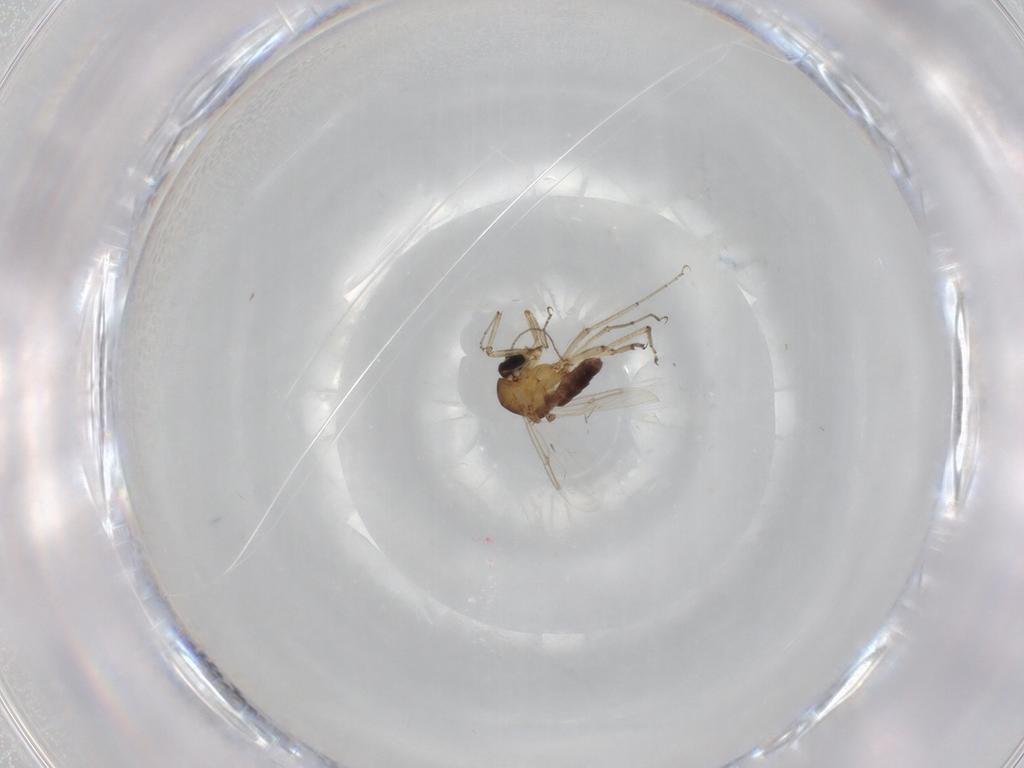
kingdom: Animalia
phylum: Arthropoda
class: Insecta
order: Diptera
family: Ceratopogonidae
